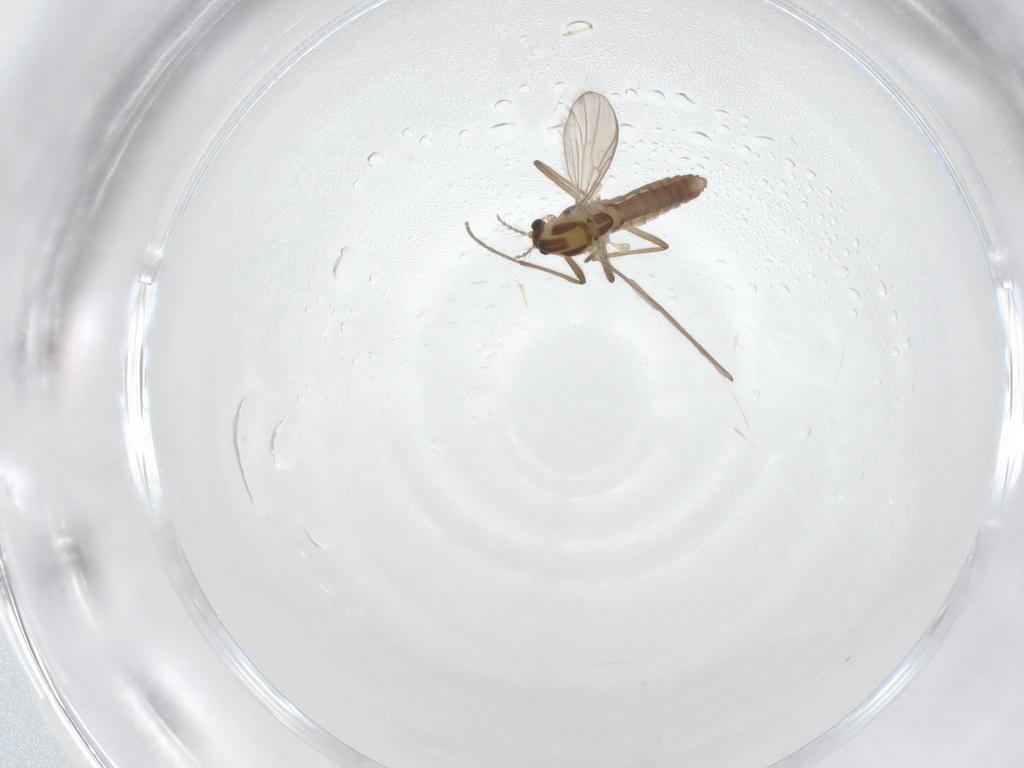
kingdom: Animalia
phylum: Arthropoda
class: Insecta
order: Diptera
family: Chironomidae
